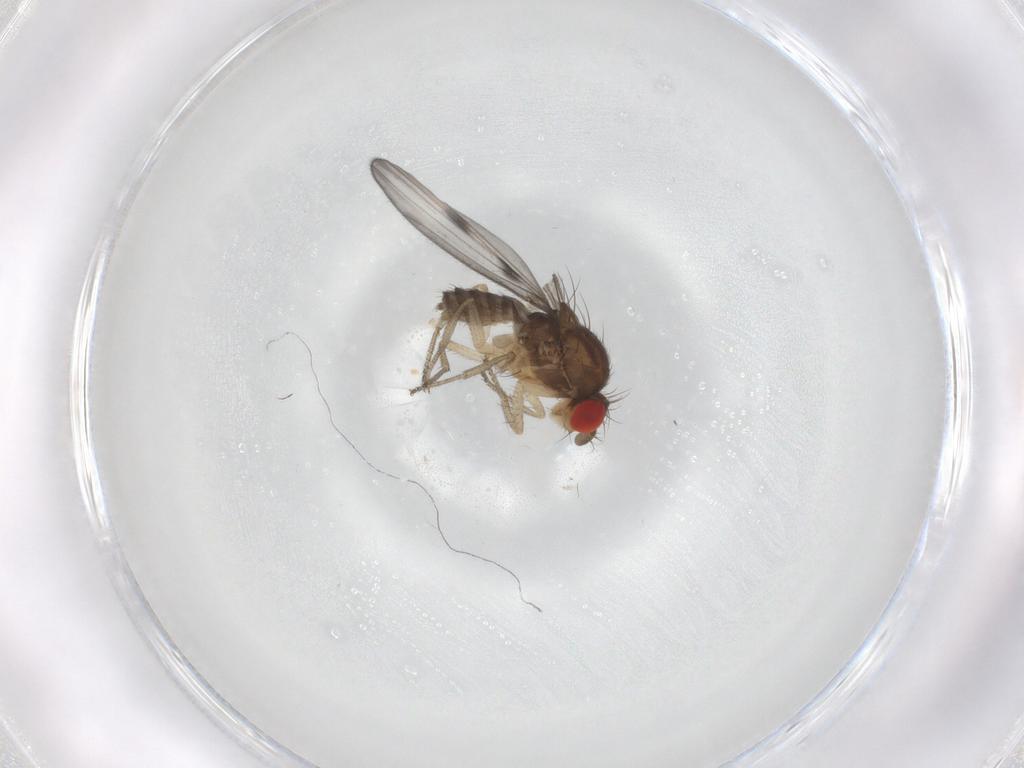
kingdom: Animalia
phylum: Arthropoda
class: Insecta
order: Diptera
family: Drosophilidae
